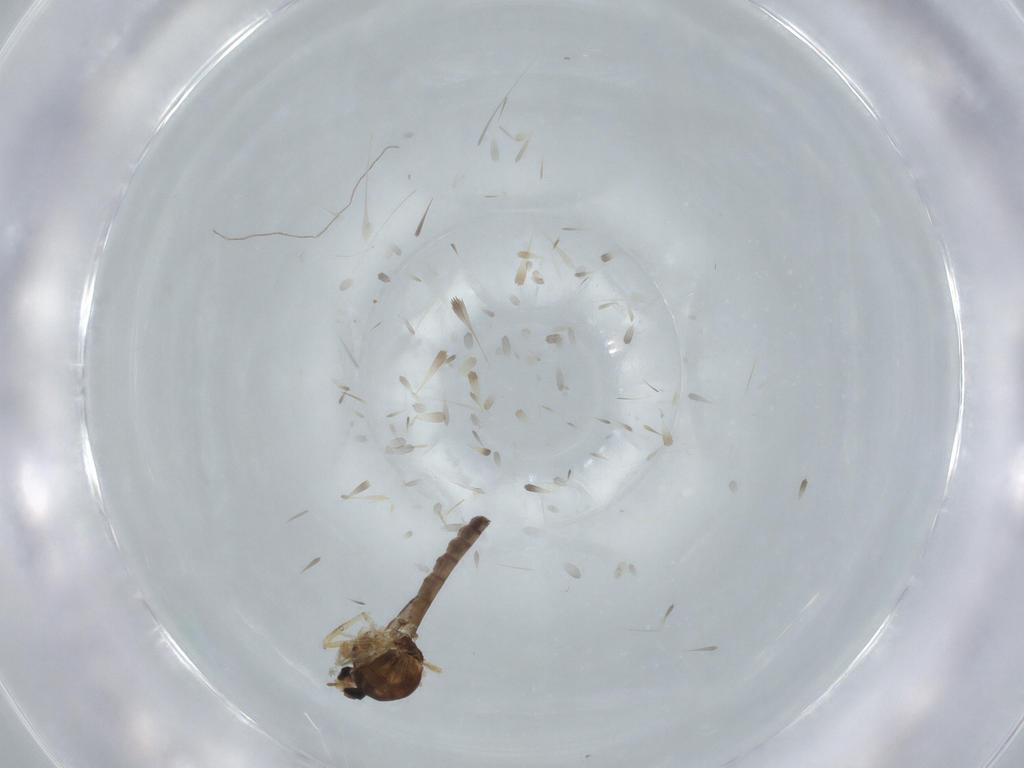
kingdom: Animalia
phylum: Arthropoda
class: Insecta
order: Diptera
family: Ceratopogonidae
